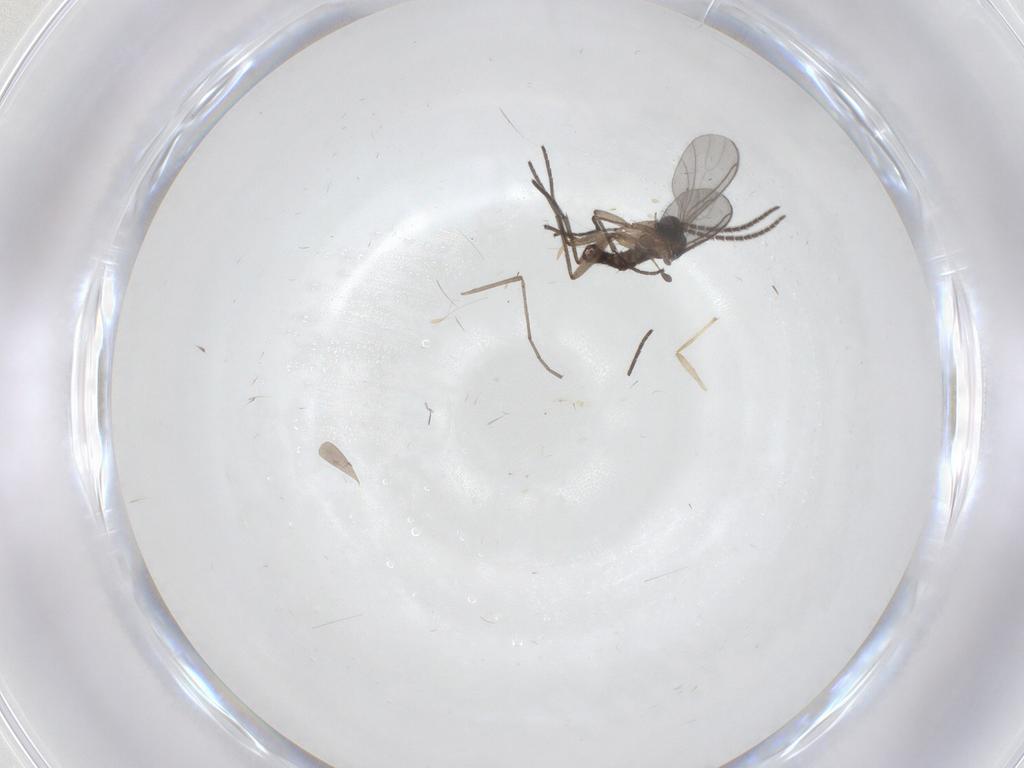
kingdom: Animalia
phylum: Arthropoda
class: Insecta
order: Diptera
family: Sciaridae
